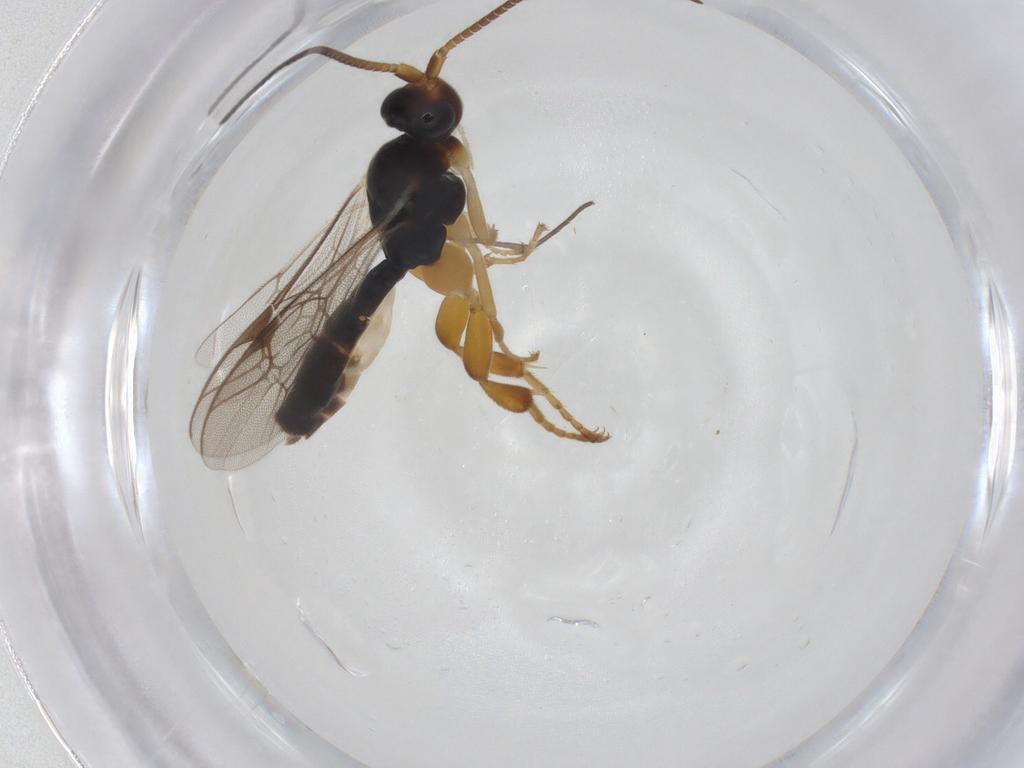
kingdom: Animalia
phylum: Arthropoda
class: Insecta
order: Hymenoptera
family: Ichneumonidae
